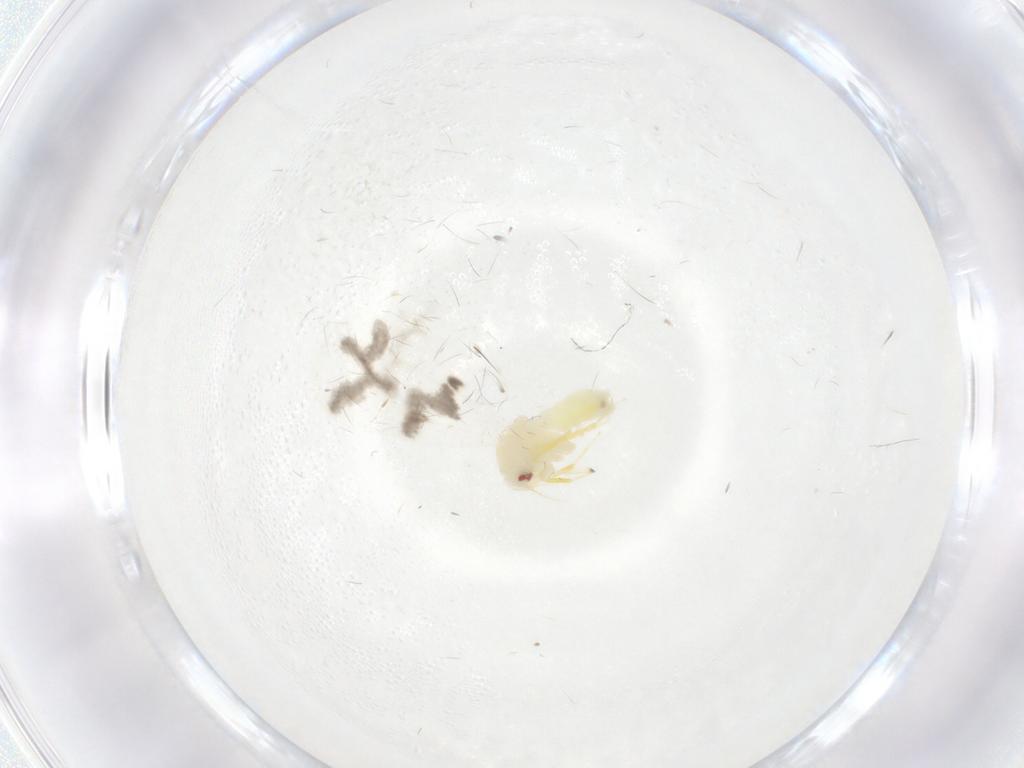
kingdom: Animalia
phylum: Arthropoda
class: Insecta
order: Hemiptera
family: Aleyrodidae
